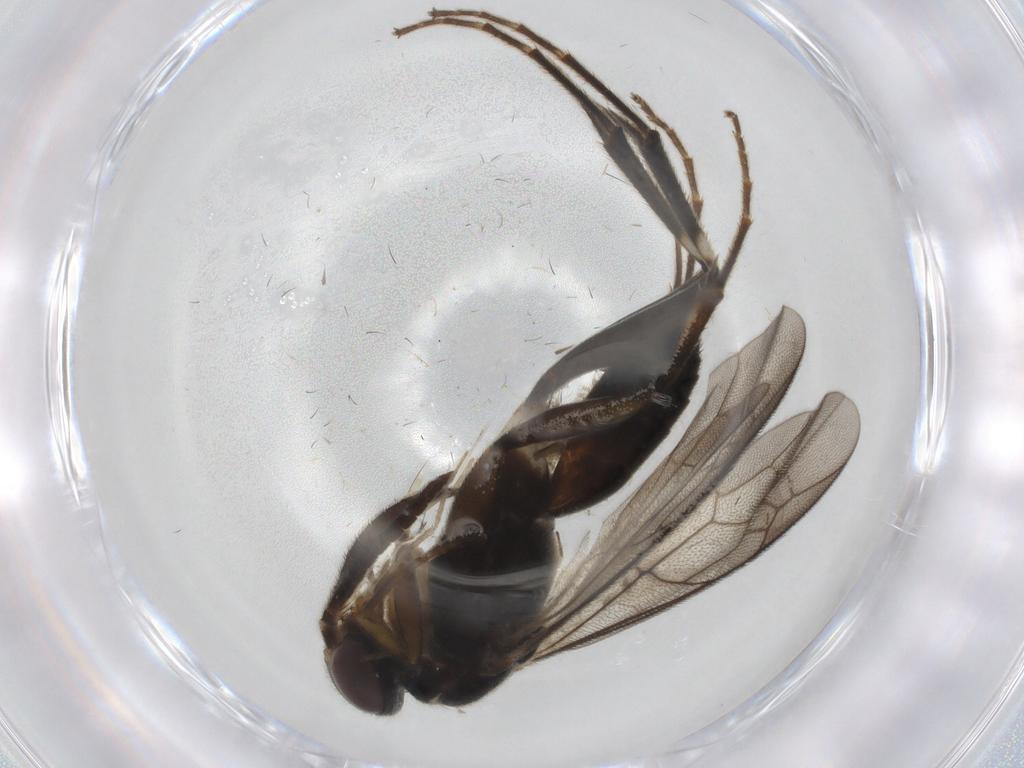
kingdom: Animalia
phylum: Arthropoda
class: Insecta
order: Hymenoptera
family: Pompilidae
